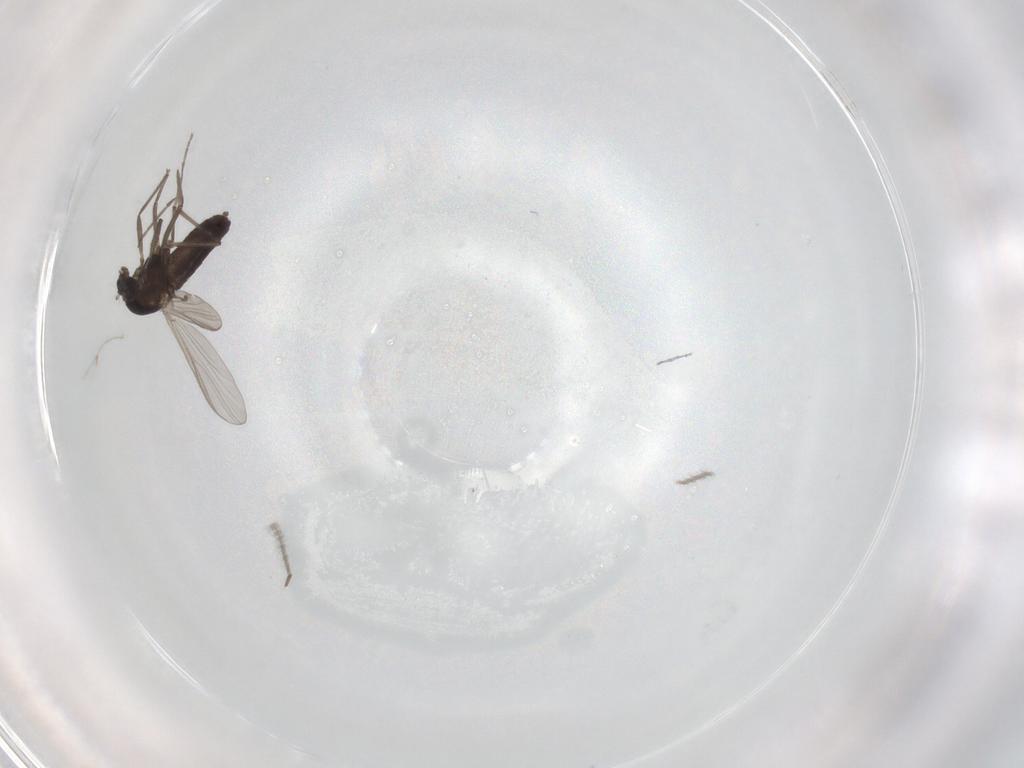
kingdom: Animalia
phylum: Arthropoda
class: Insecta
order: Diptera
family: Chironomidae
